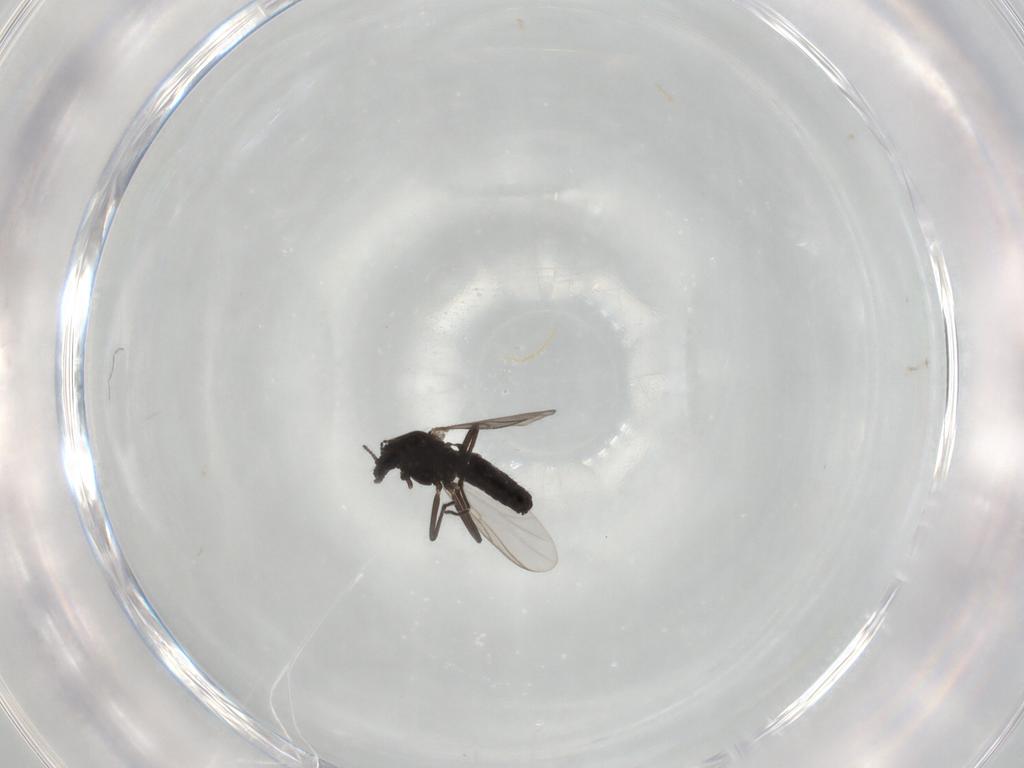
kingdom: Animalia
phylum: Arthropoda
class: Insecta
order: Diptera
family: Chironomidae
